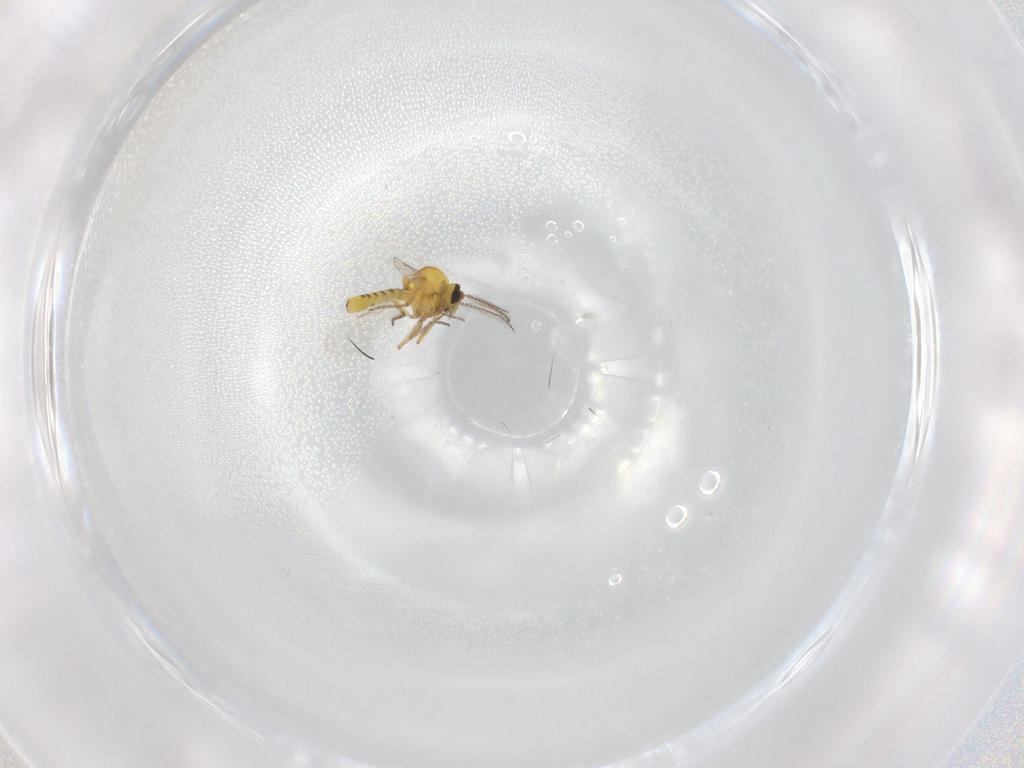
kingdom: Animalia
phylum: Arthropoda
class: Insecta
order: Diptera
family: Ceratopogonidae
